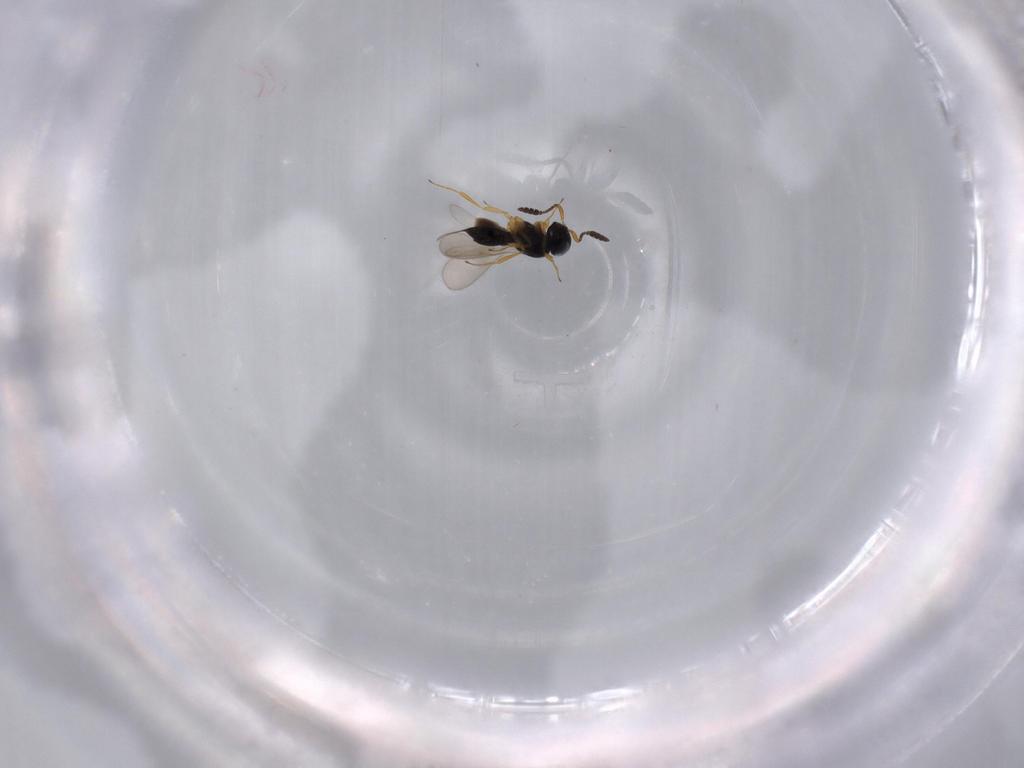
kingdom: Animalia
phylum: Arthropoda
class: Insecta
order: Hymenoptera
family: Scelionidae
